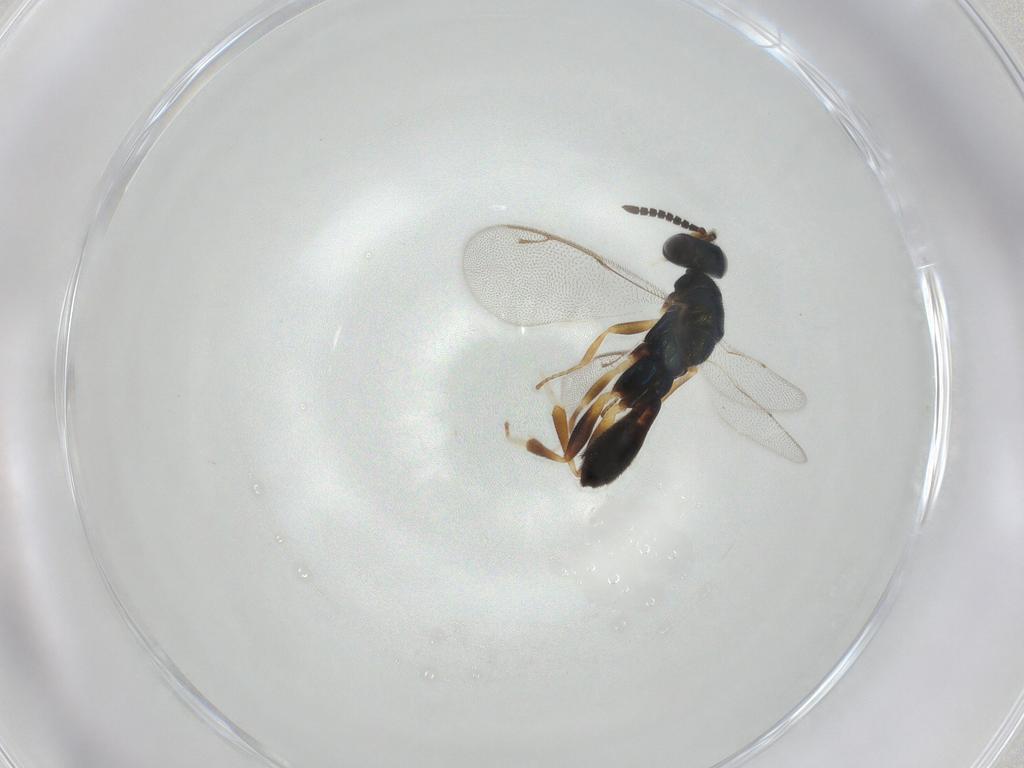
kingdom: Animalia
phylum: Arthropoda
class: Insecta
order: Hymenoptera
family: Cleonyminae
